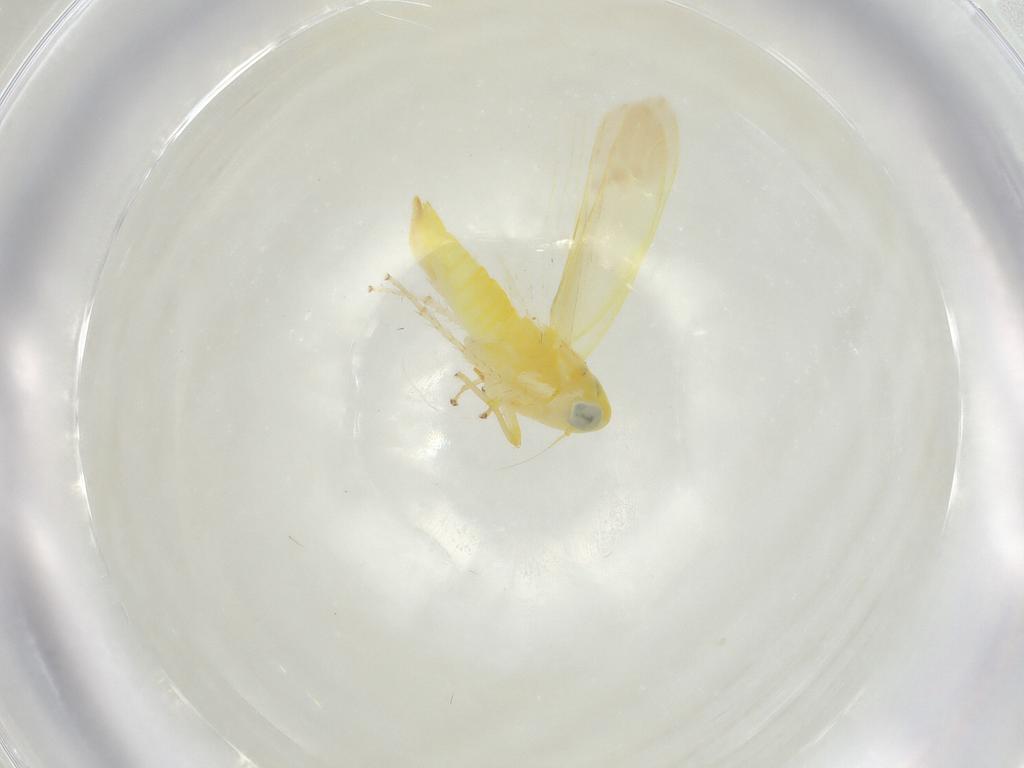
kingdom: Animalia
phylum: Arthropoda
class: Insecta
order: Hemiptera
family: Cicadellidae
